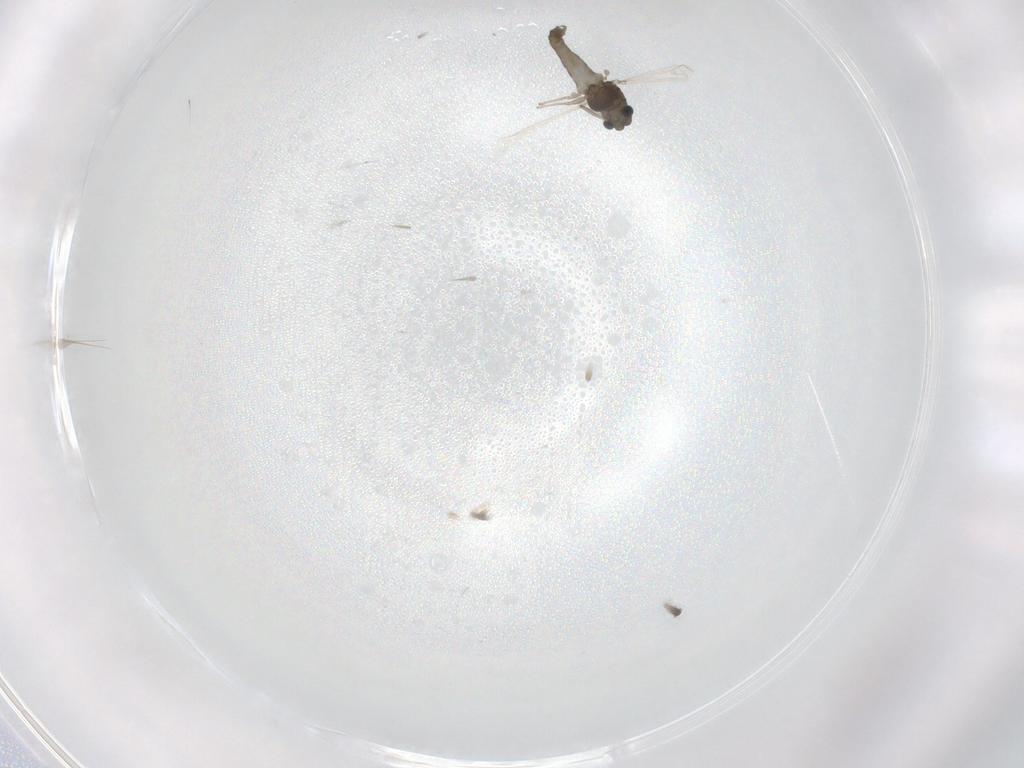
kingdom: Animalia
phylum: Arthropoda
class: Insecta
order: Diptera
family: Chironomidae
